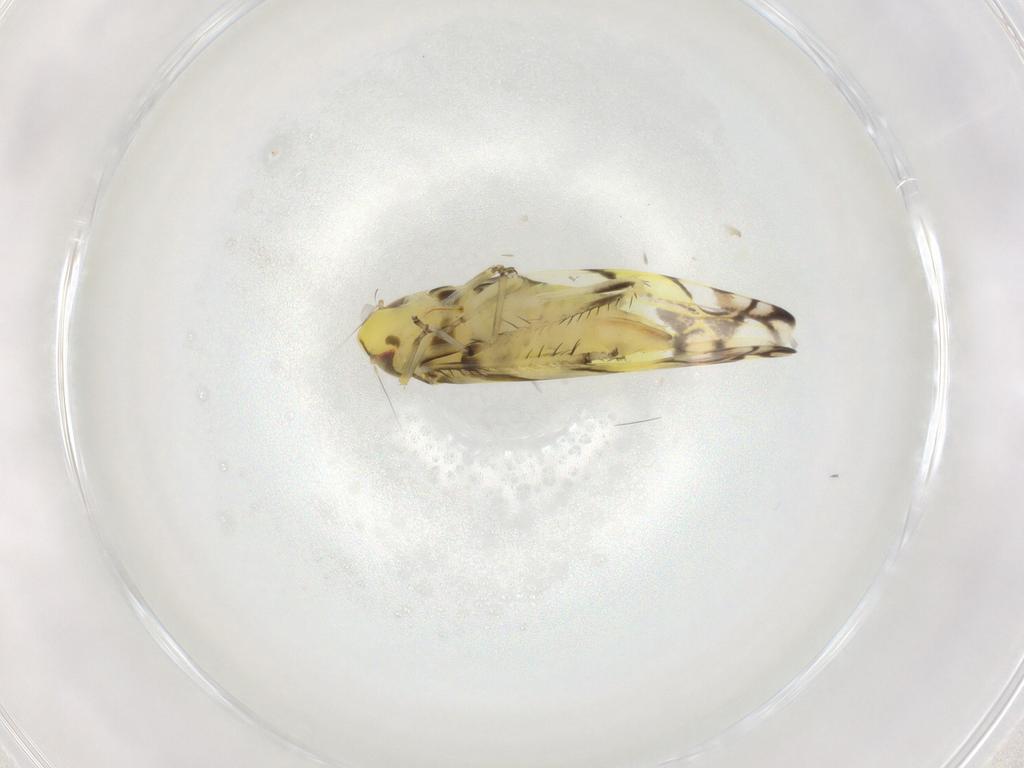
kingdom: Animalia
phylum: Arthropoda
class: Insecta
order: Hemiptera
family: Cicadellidae
